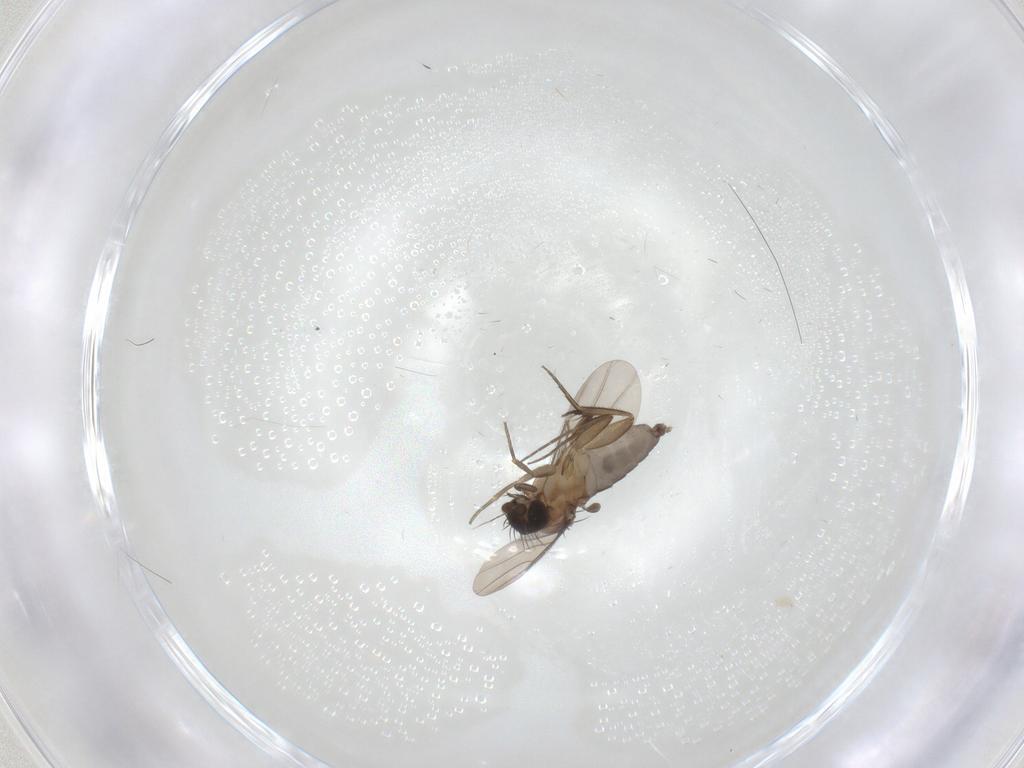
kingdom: Animalia
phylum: Arthropoda
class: Insecta
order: Diptera
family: Phoridae
